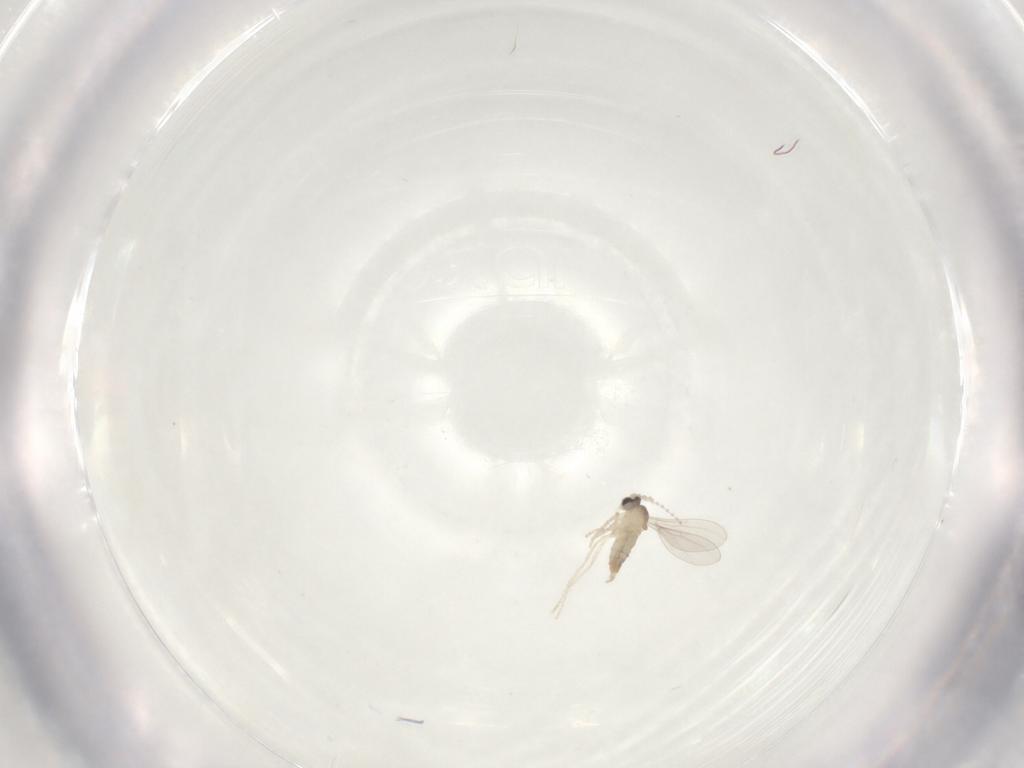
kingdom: Animalia
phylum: Arthropoda
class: Insecta
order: Diptera
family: Cecidomyiidae
